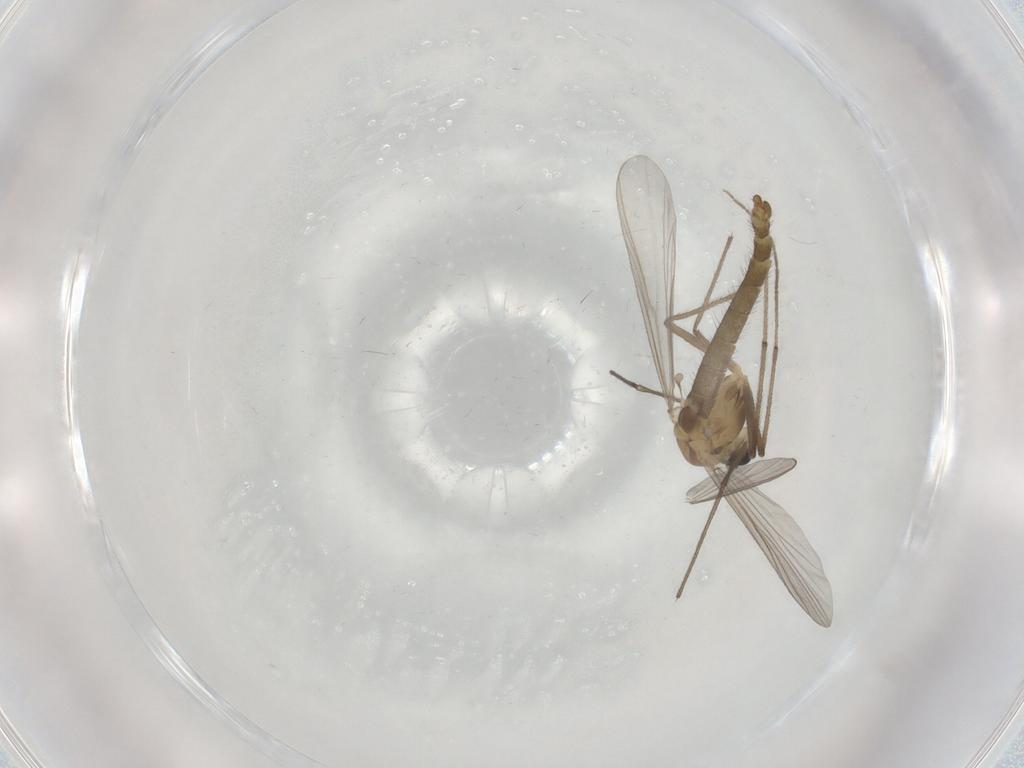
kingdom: Animalia
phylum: Arthropoda
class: Insecta
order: Diptera
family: Chironomidae
